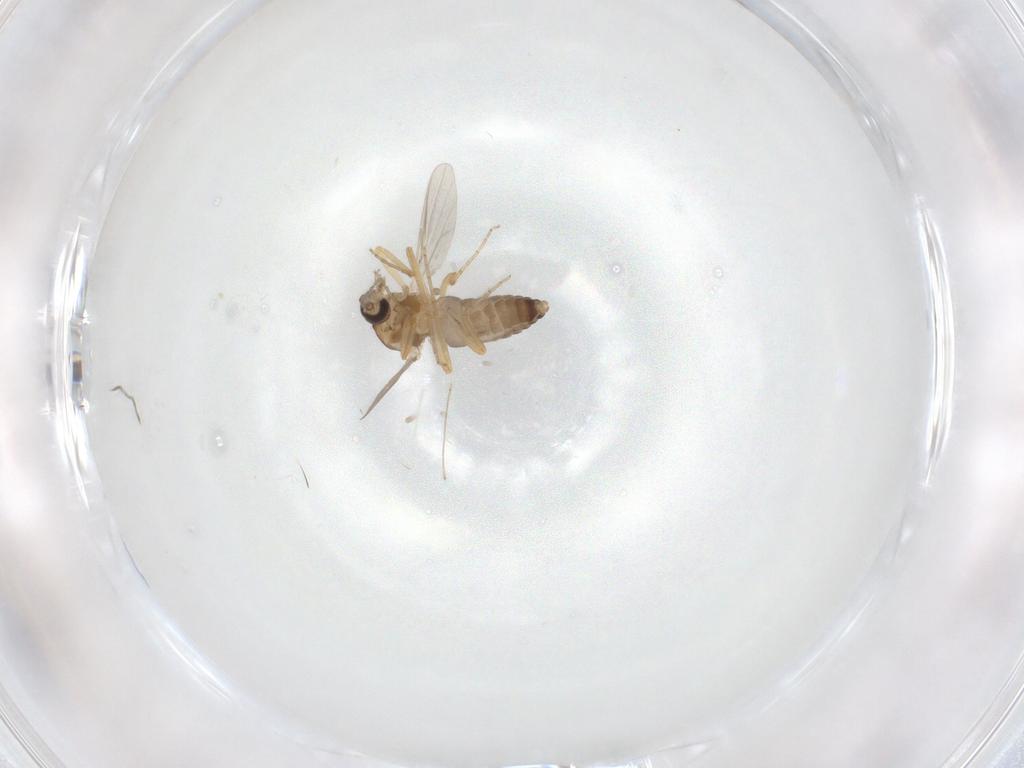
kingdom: Animalia
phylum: Arthropoda
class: Insecta
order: Diptera
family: Ceratopogonidae
